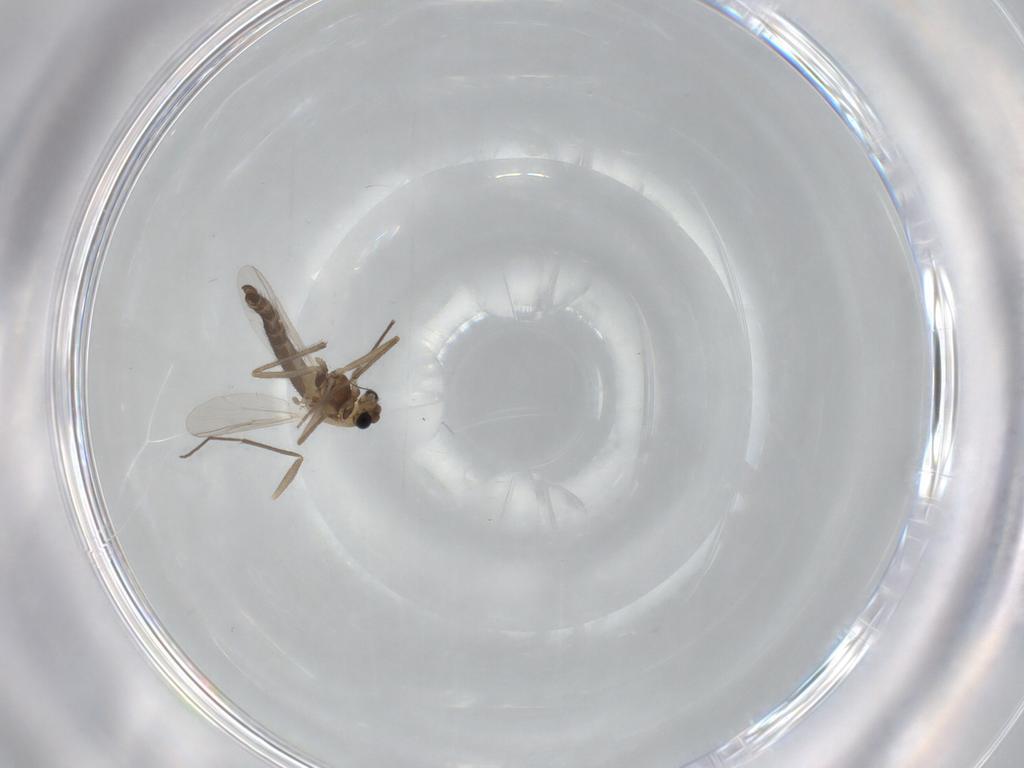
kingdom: Animalia
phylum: Arthropoda
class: Insecta
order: Diptera
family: Chironomidae
